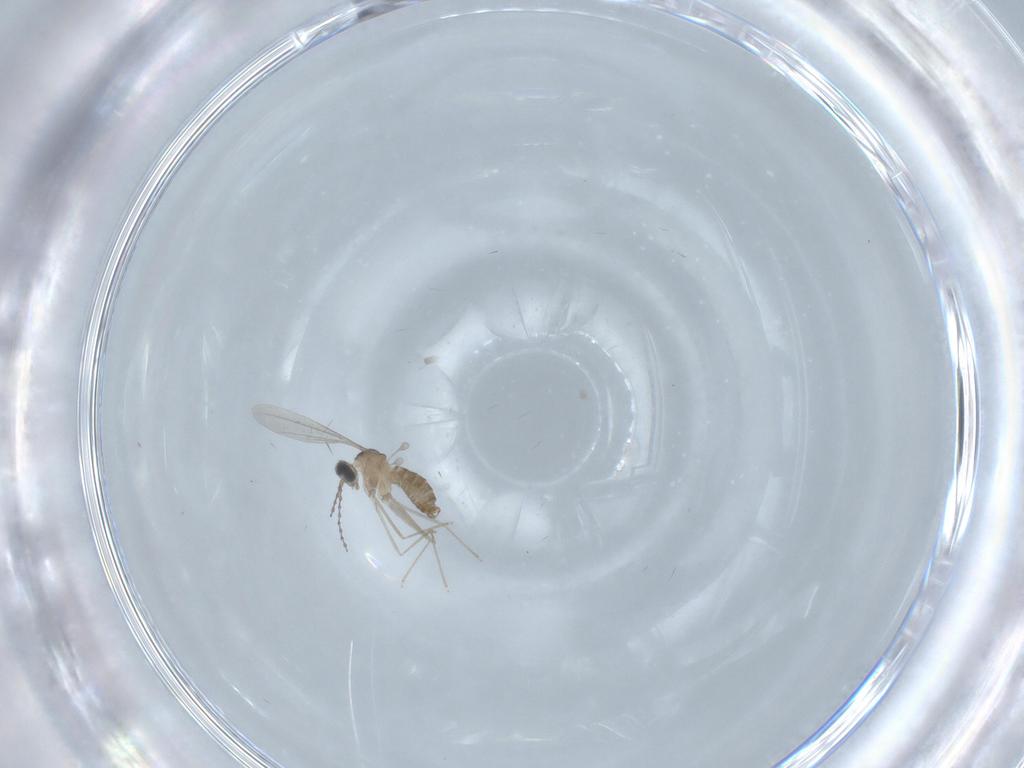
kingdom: Animalia
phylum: Arthropoda
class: Insecta
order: Diptera
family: Cecidomyiidae
